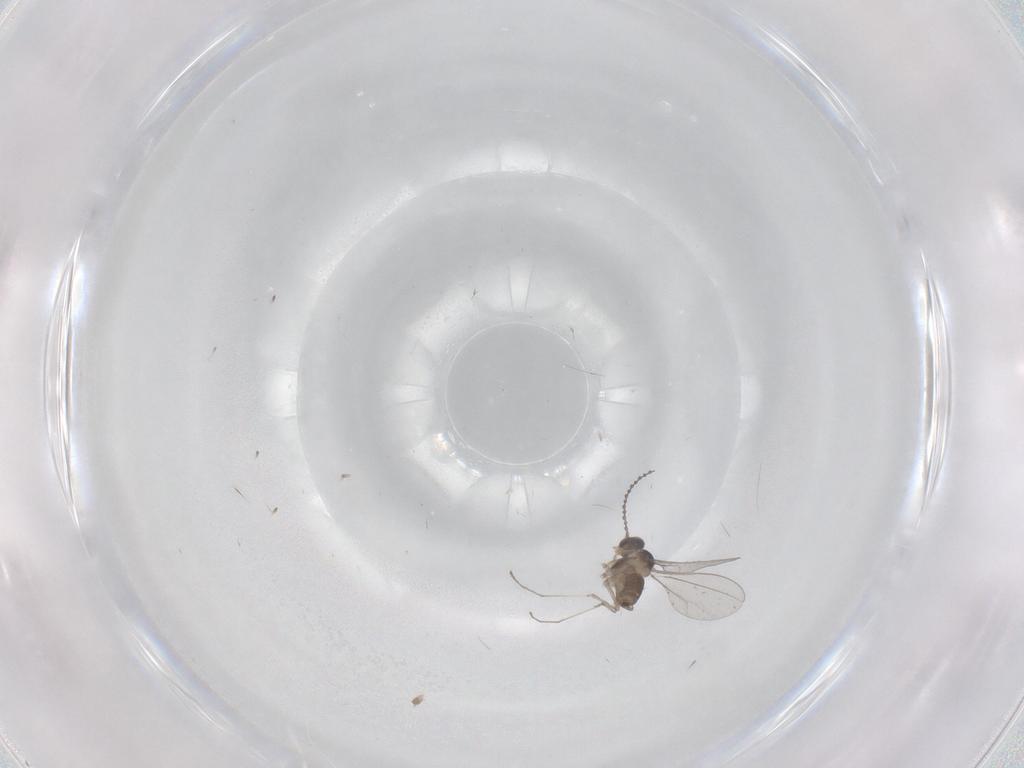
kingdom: Animalia
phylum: Arthropoda
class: Insecta
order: Diptera
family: Phoridae
